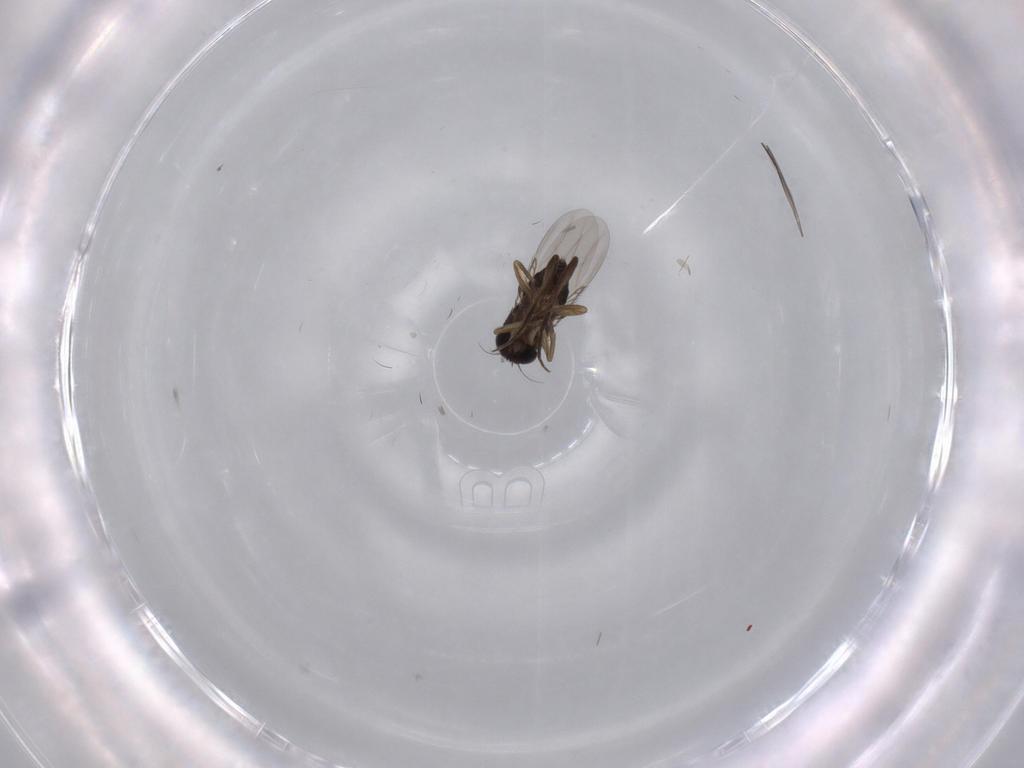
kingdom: Animalia
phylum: Arthropoda
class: Insecta
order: Diptera
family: Phoridae
